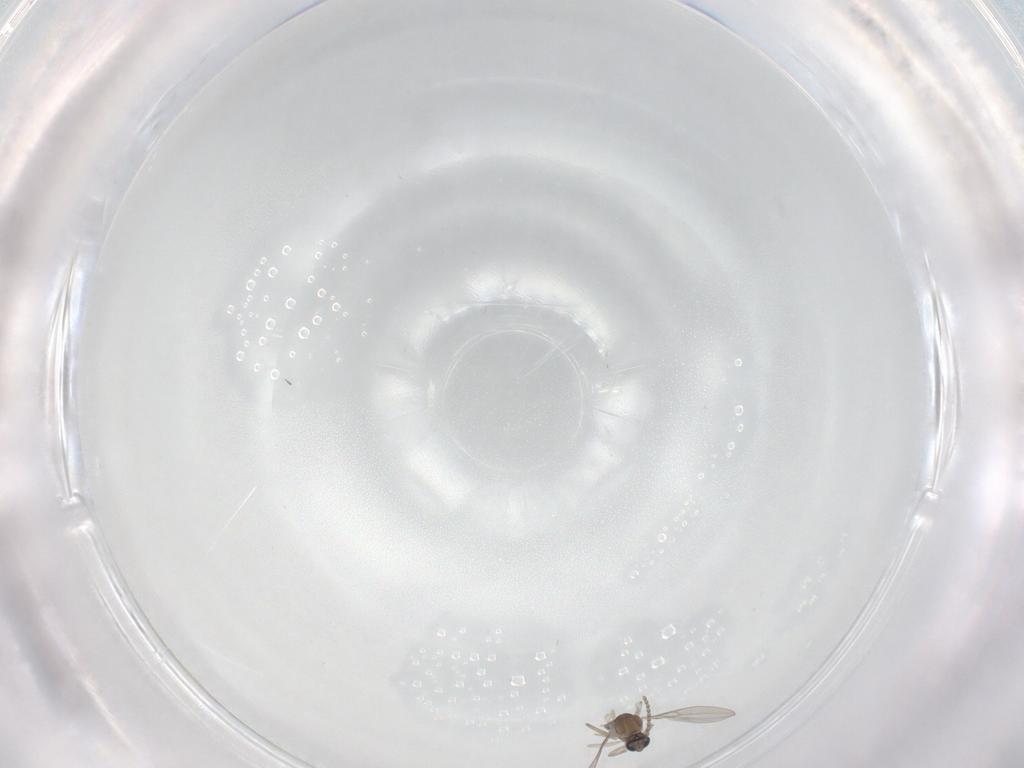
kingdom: Animalia
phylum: Arthropoda
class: Insecta
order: Diptera
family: Cecidomyiidae
